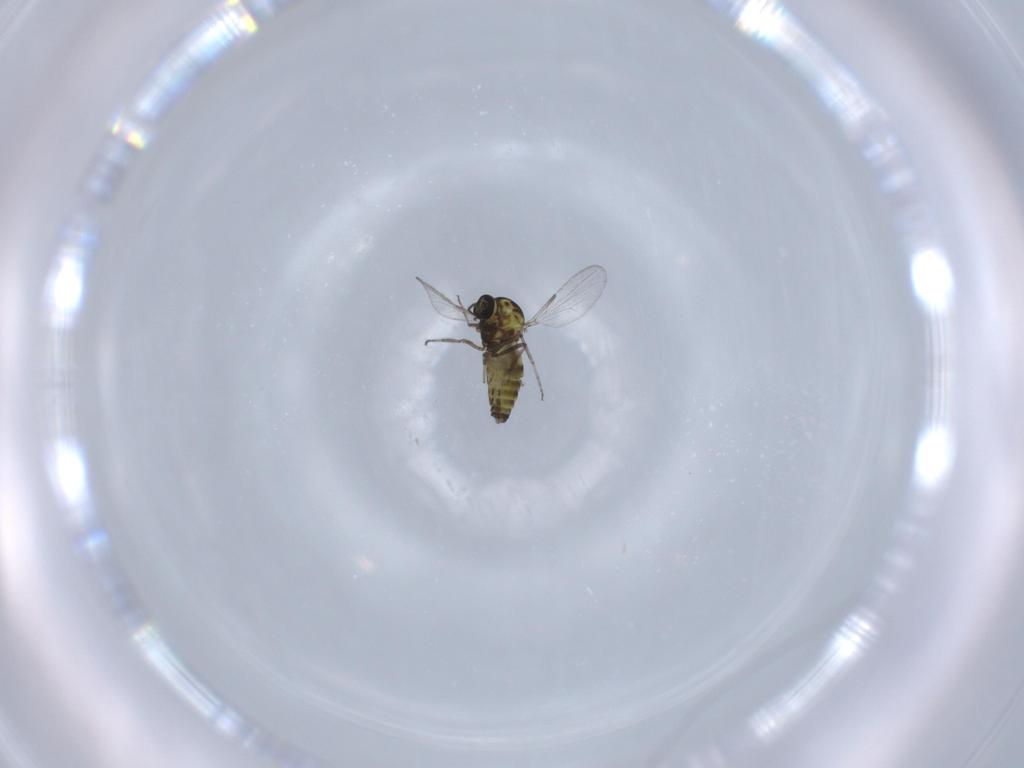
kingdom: Animalia
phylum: Arthropoda
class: Insecta
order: Diptera
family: Ceratopogonidae
